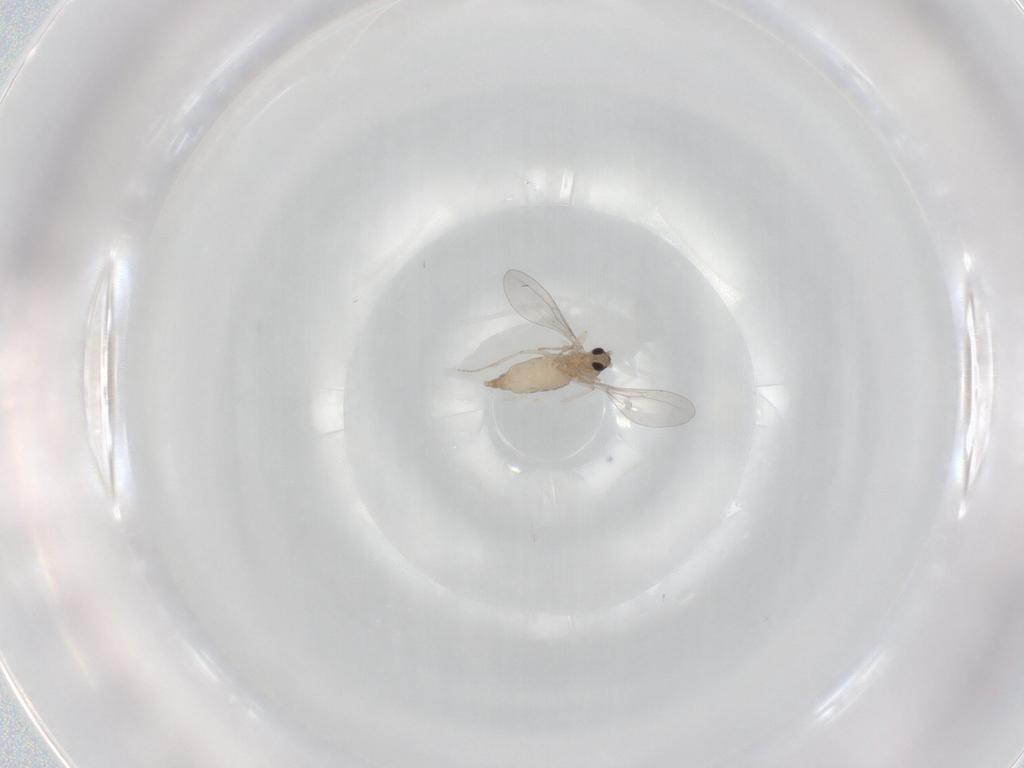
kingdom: Animalia
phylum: Arthropoda
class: Insecta
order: Diptera
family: Cecidomyiidae
